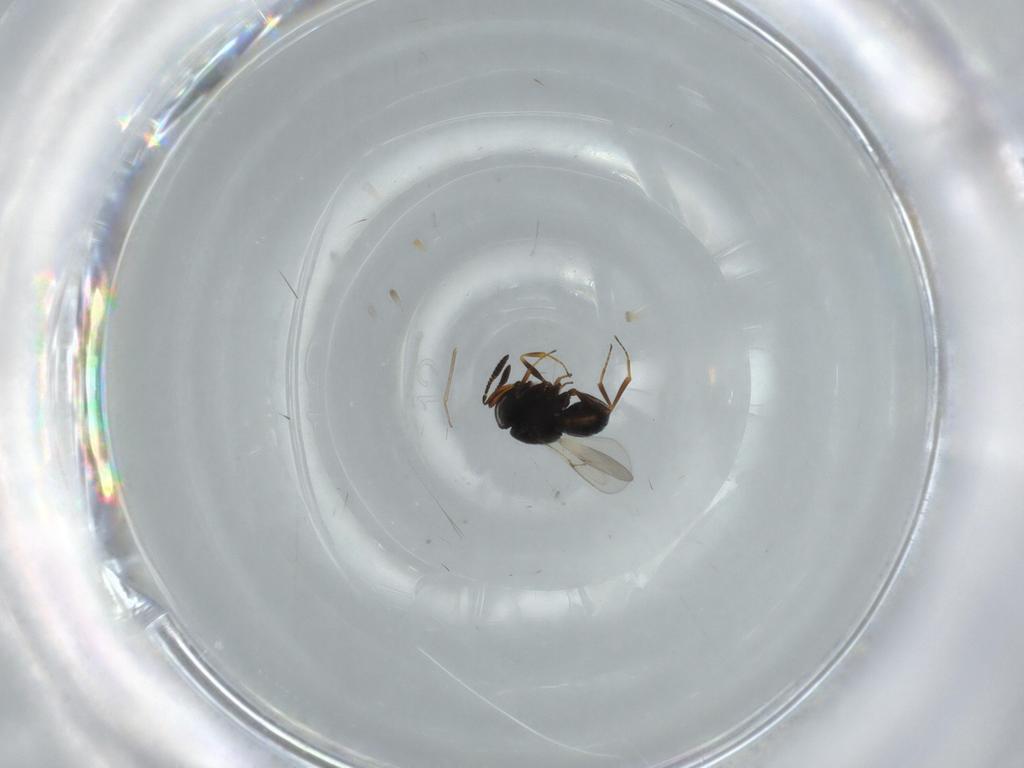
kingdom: Animalia
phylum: Arthropoda
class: Insecta
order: Hymenoptera
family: Scelionidae
